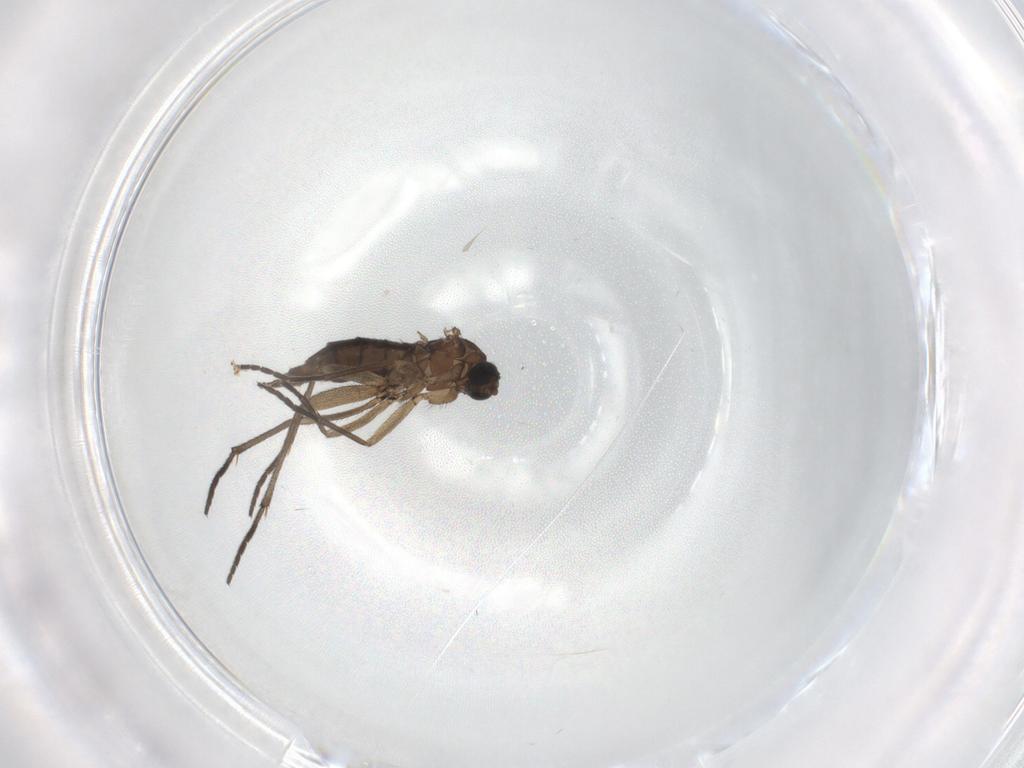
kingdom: Animalia
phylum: Arthropoda
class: Insecta
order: Diptera
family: Sciaridae
